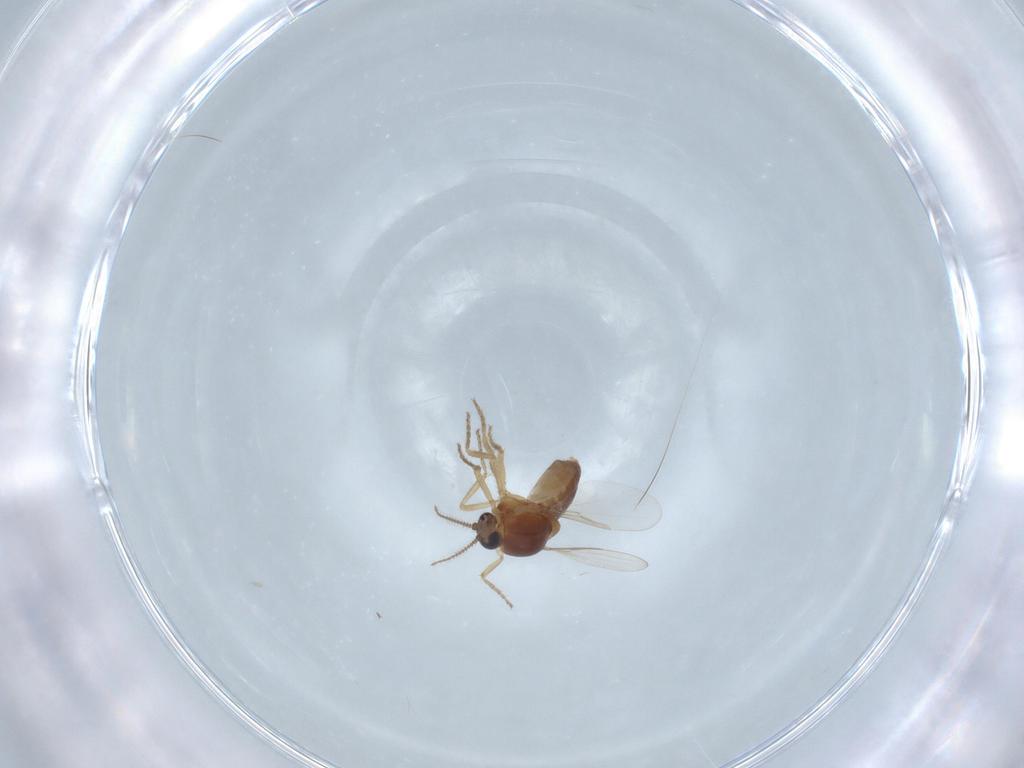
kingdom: Animalia
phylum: Arthropoda
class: Insecta
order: Diptera
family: Ceratopogonidae
